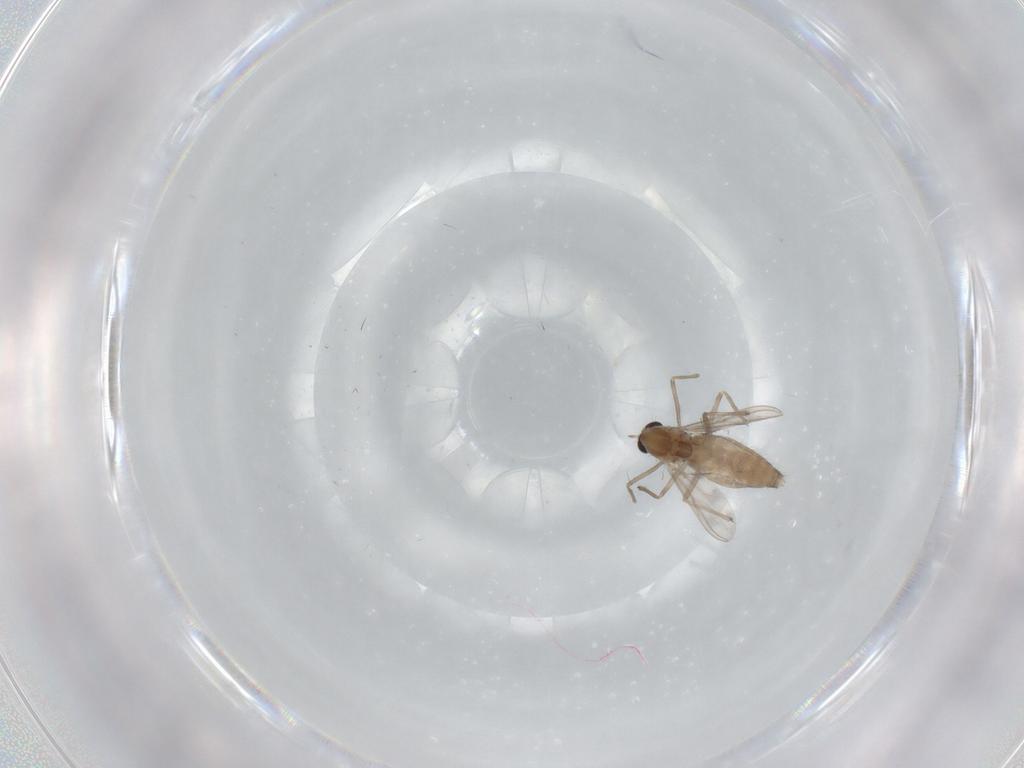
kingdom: Animalia
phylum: Arthropoda
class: Insecta
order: Diptera
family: Chironomidae
